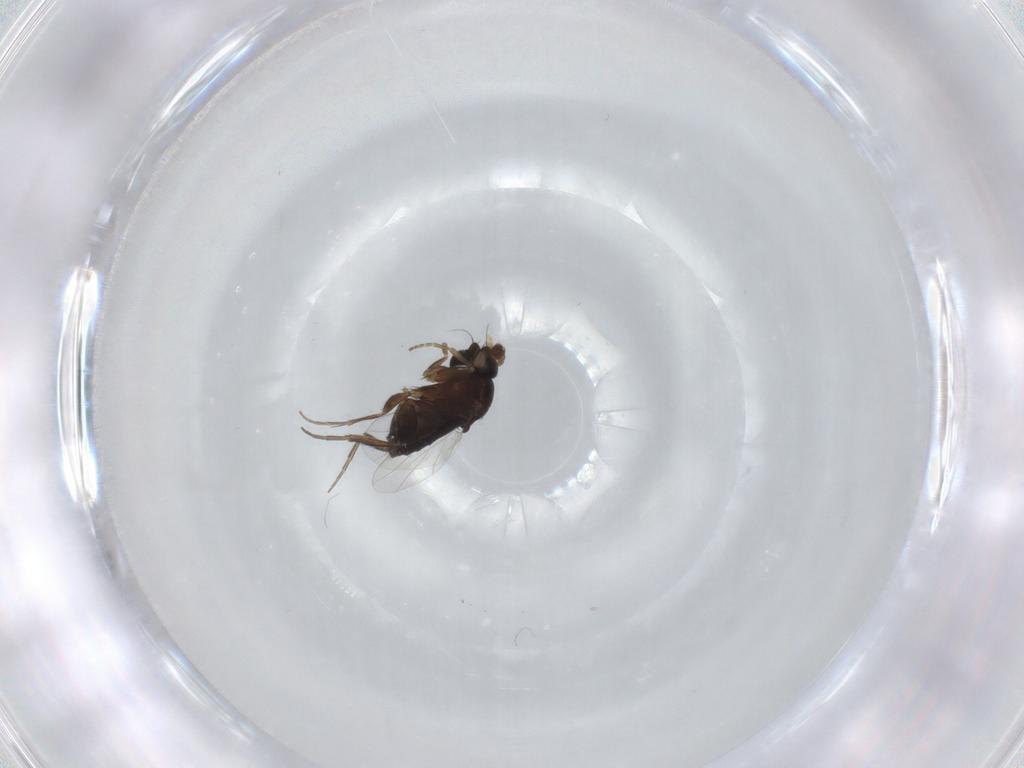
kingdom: Animalia
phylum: Arthropoda
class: Insecta
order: Diptera
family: Phoridae
